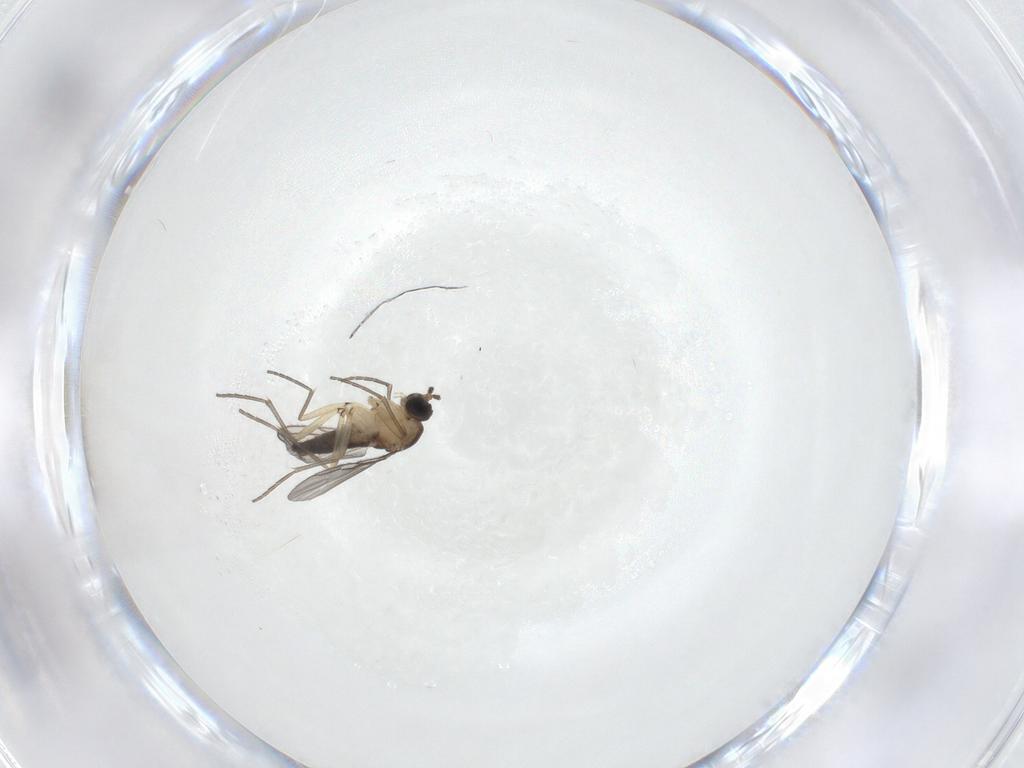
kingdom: Animalia
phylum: Arthropoda
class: Insecta
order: Diptera
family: Sciaridae
